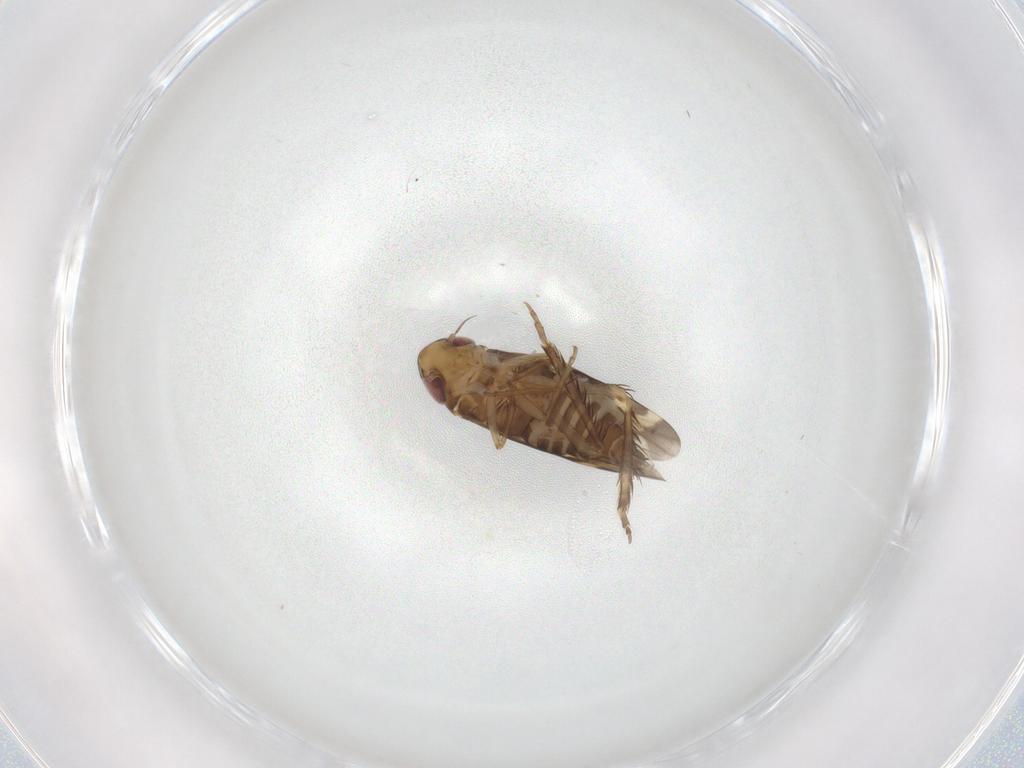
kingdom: Animalia
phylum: Arthropoda
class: Insecta
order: Hemiptera
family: Cicadellidae
